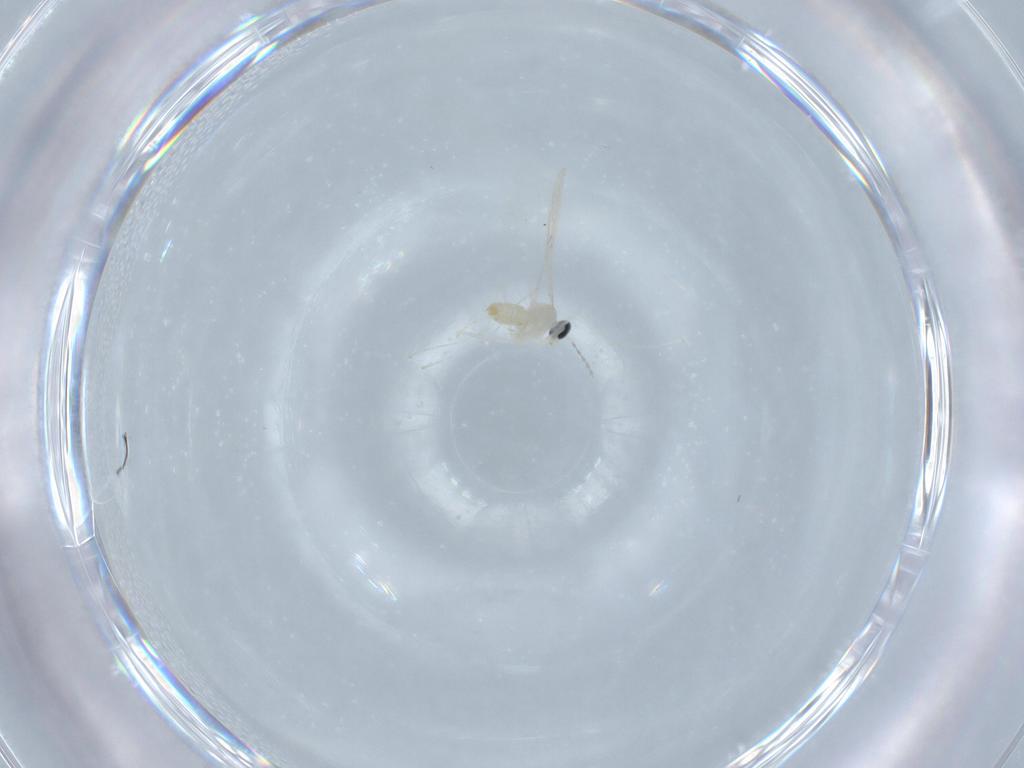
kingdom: Animalia
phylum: Arthropoda
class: Insecta
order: Diptera
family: Cecidomyiidae
